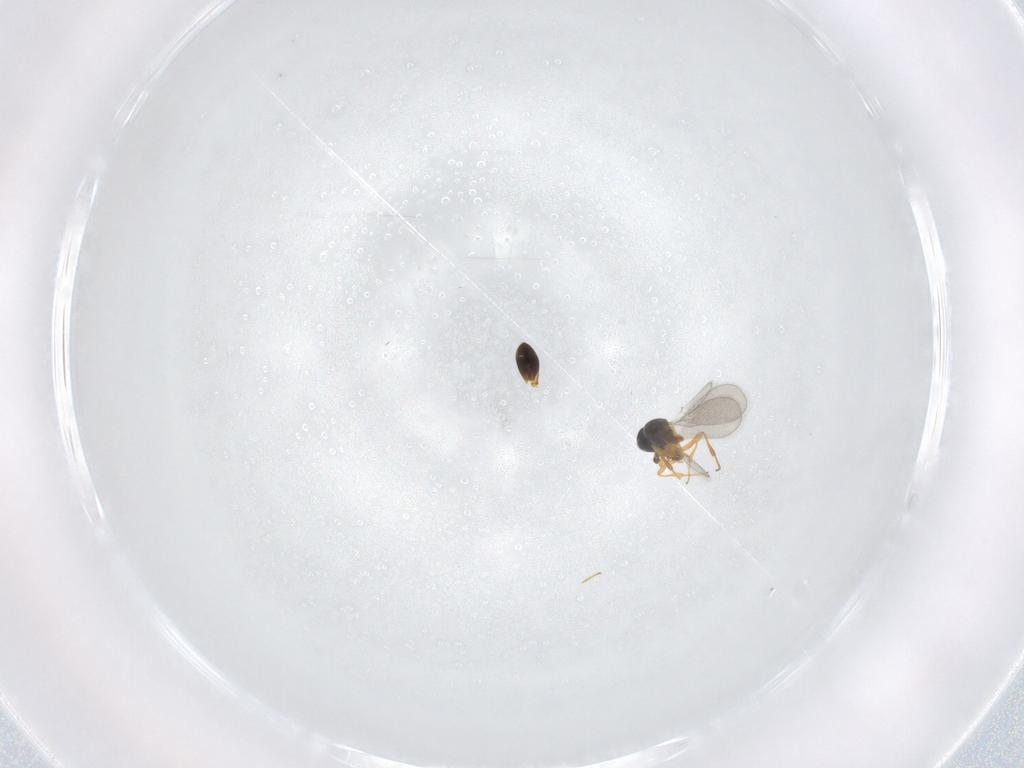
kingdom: Animalia
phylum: Arthropoda
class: Insecta
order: Hymenoptera
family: Platygastridae
